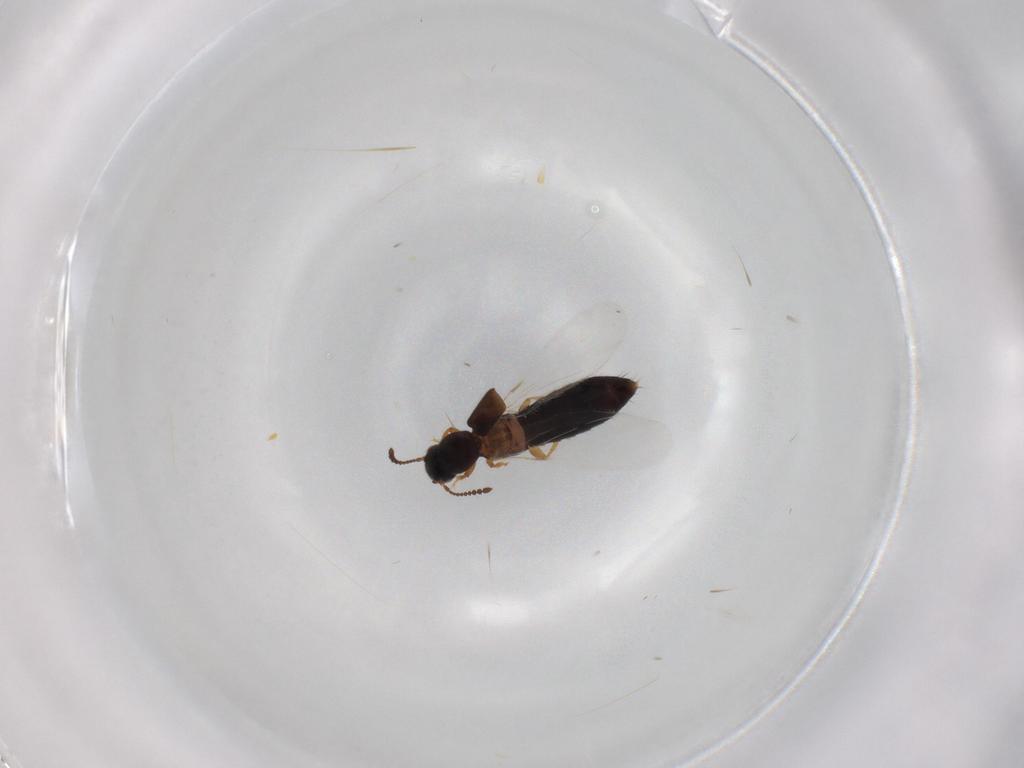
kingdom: Animalia
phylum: Arthropoda
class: Insecta
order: Coleoptera
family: Staphylinidae
